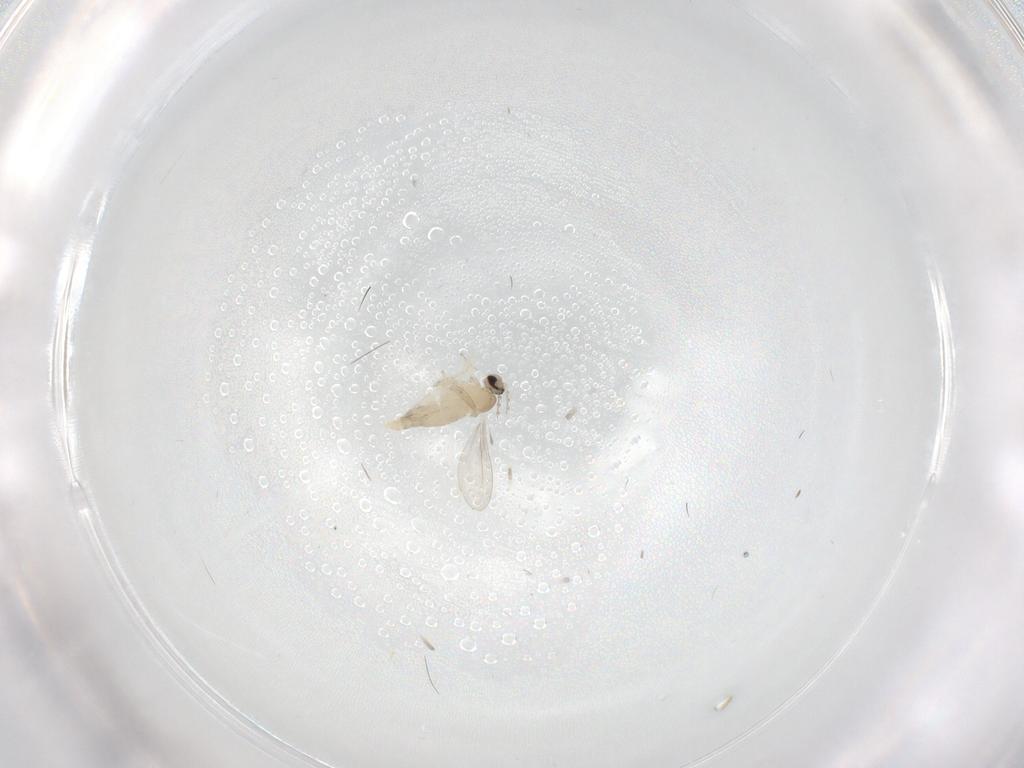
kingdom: Animalia
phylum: Arthropoda
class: Insecta
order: Diptera
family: Cecidomyiidae
